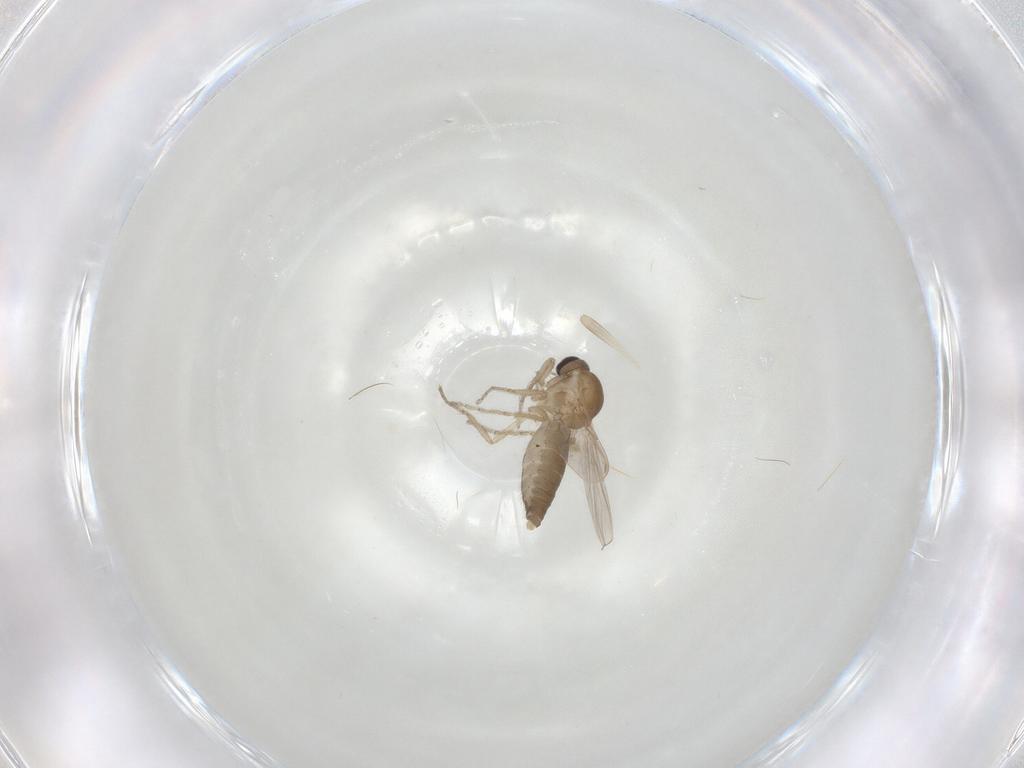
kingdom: Animalia
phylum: Arthropoda
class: Insecta
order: Diptera
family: Ceratopogonidae
